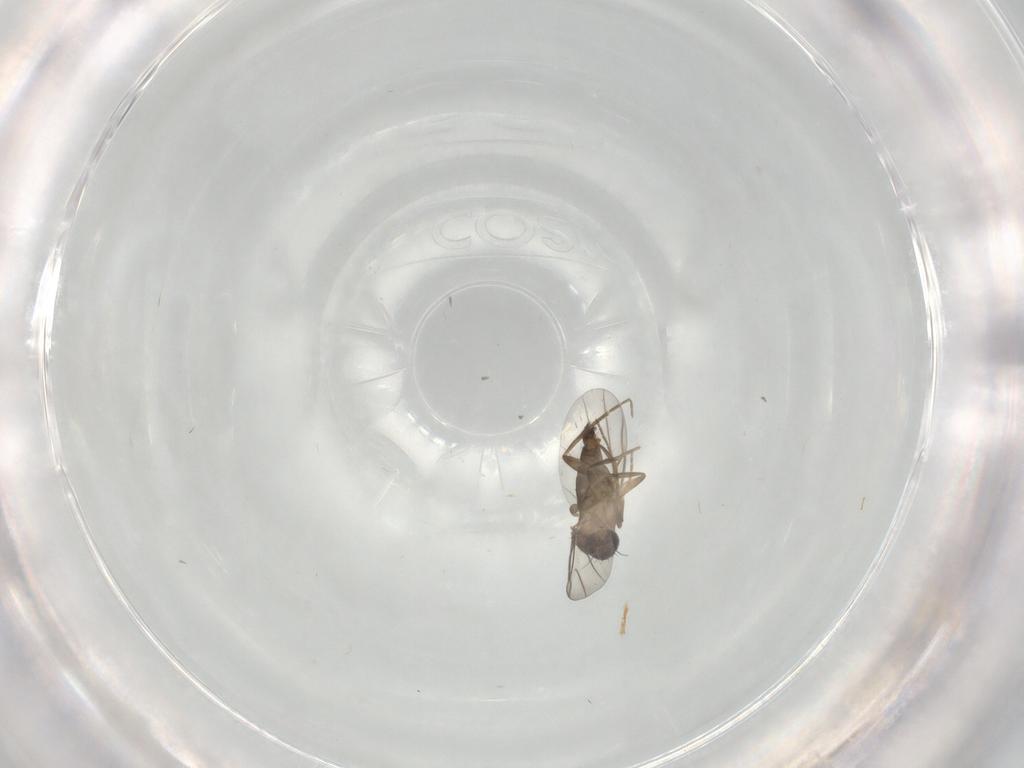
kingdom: Animalia
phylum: Arthropoda
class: Insecta
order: Diptera
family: Phoridae
